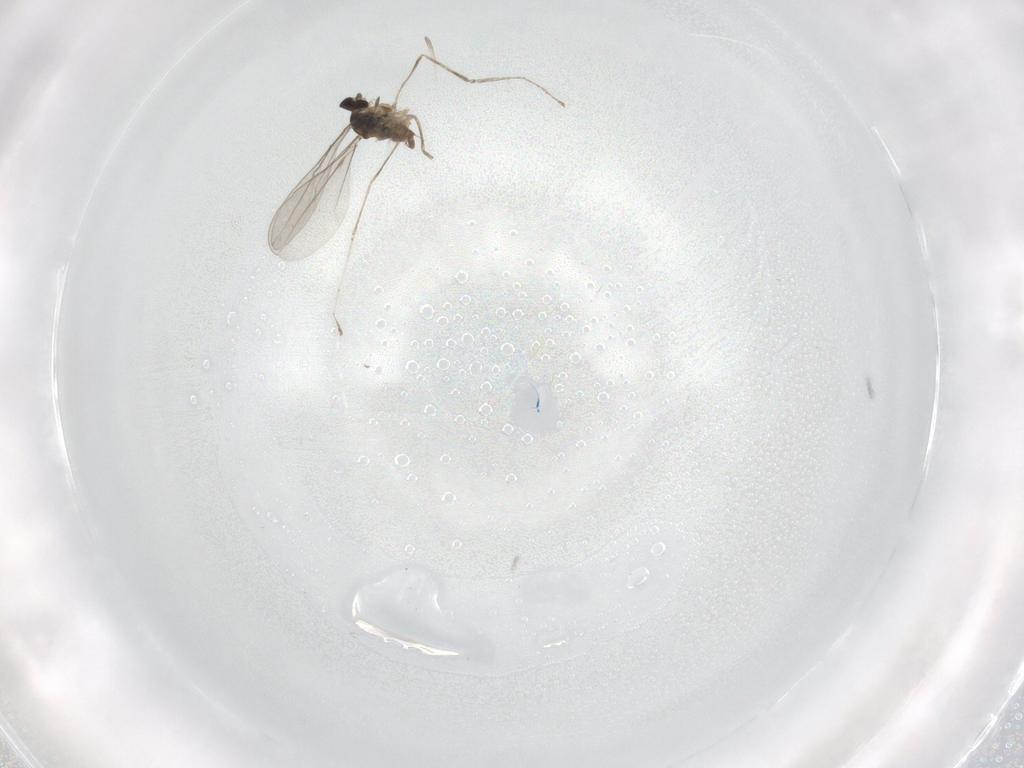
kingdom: Animalia
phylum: Arthropoda
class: Insecta
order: Diptera
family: Cecidomyiidae
